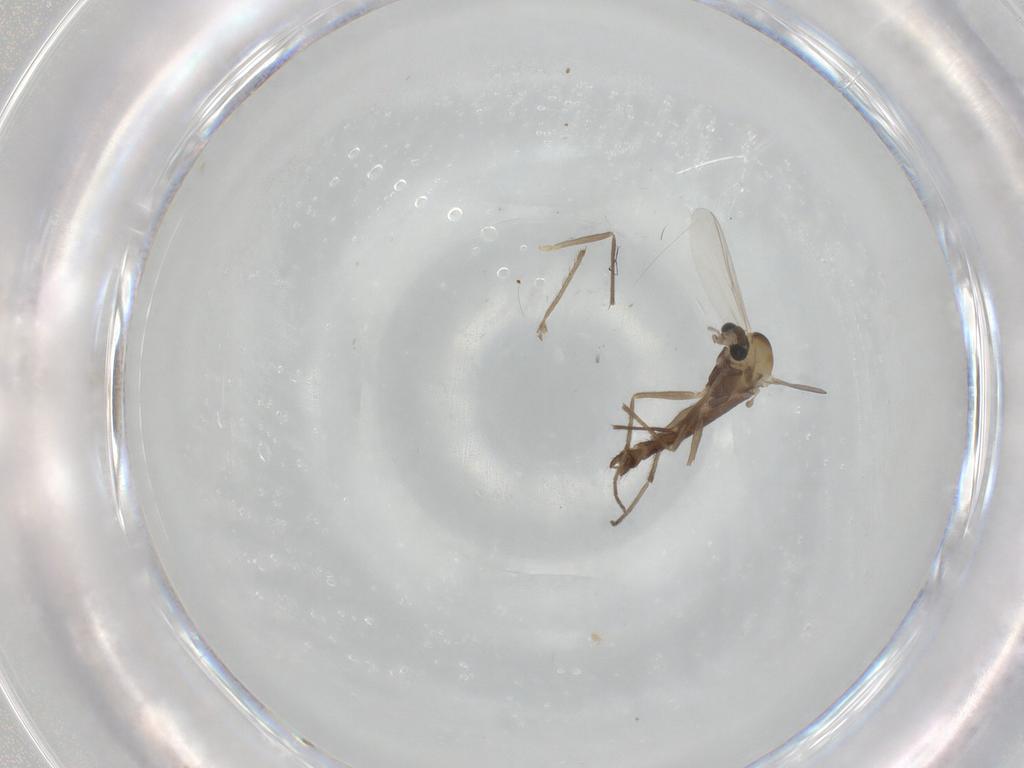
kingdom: Animalia
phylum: Arthropoda
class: Insecta
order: Diptera
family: Chironomidae
